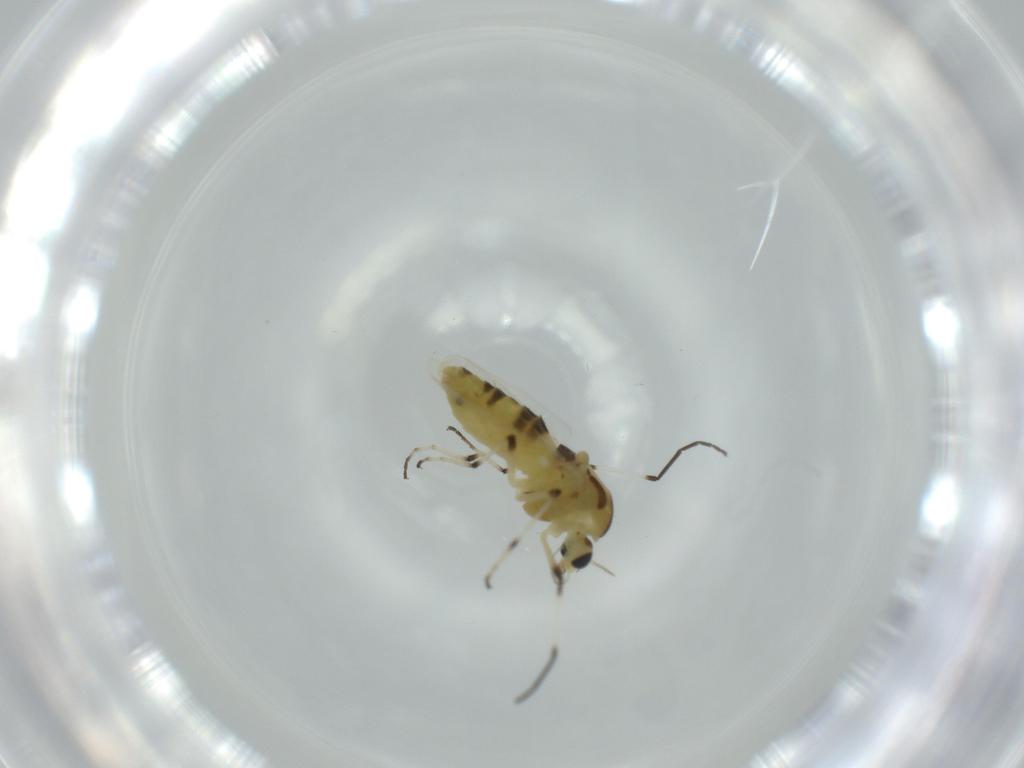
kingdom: Animalia
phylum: Arthropoda
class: Insecta
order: Diptera
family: Chironomidae
